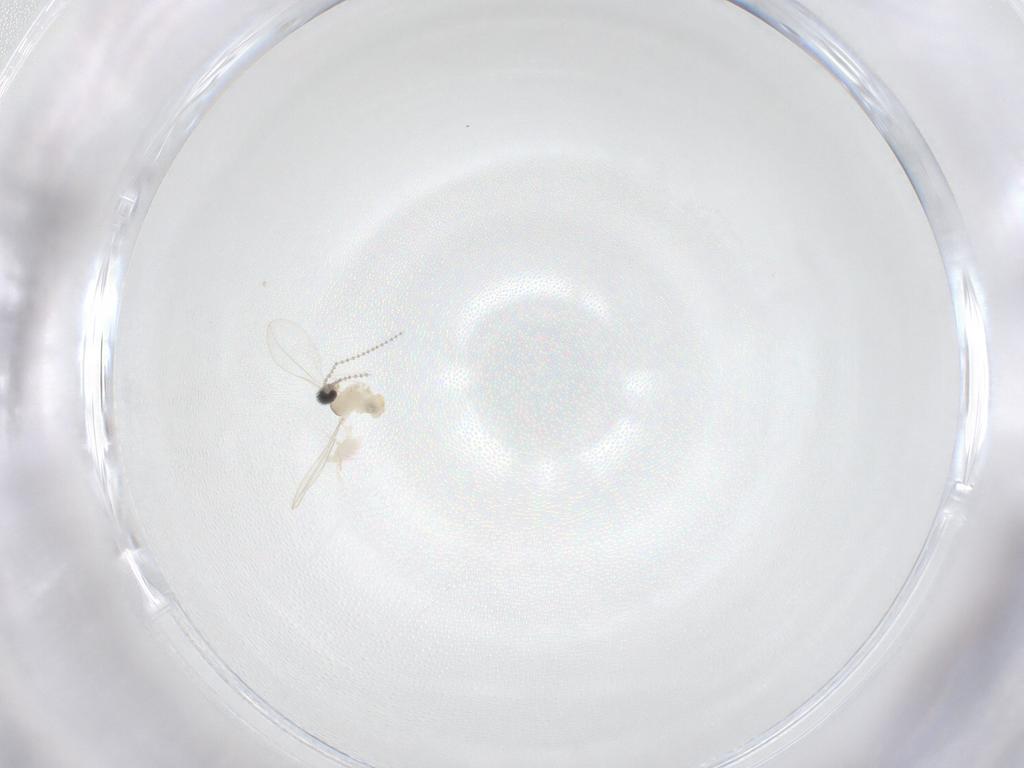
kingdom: Animalia
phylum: Arthropoda
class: Insecta
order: Diptera
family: Cecidomyiidae
